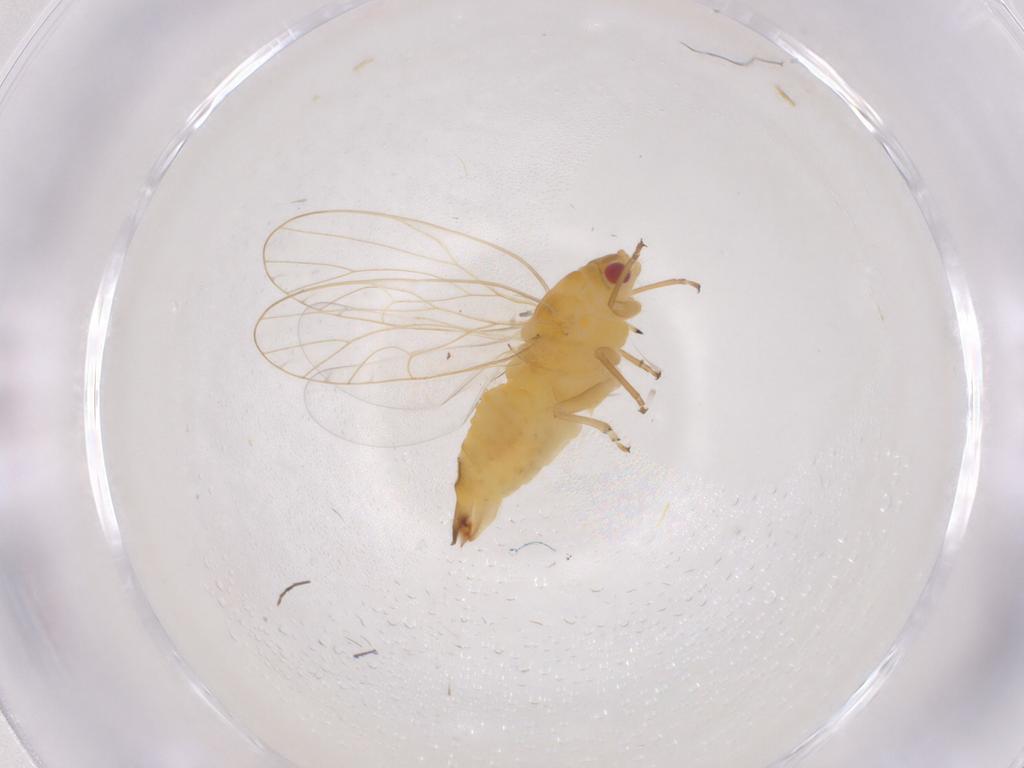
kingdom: Animalia
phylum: Arthropoda
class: Insecta
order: Hemiptera
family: Psyllidae
